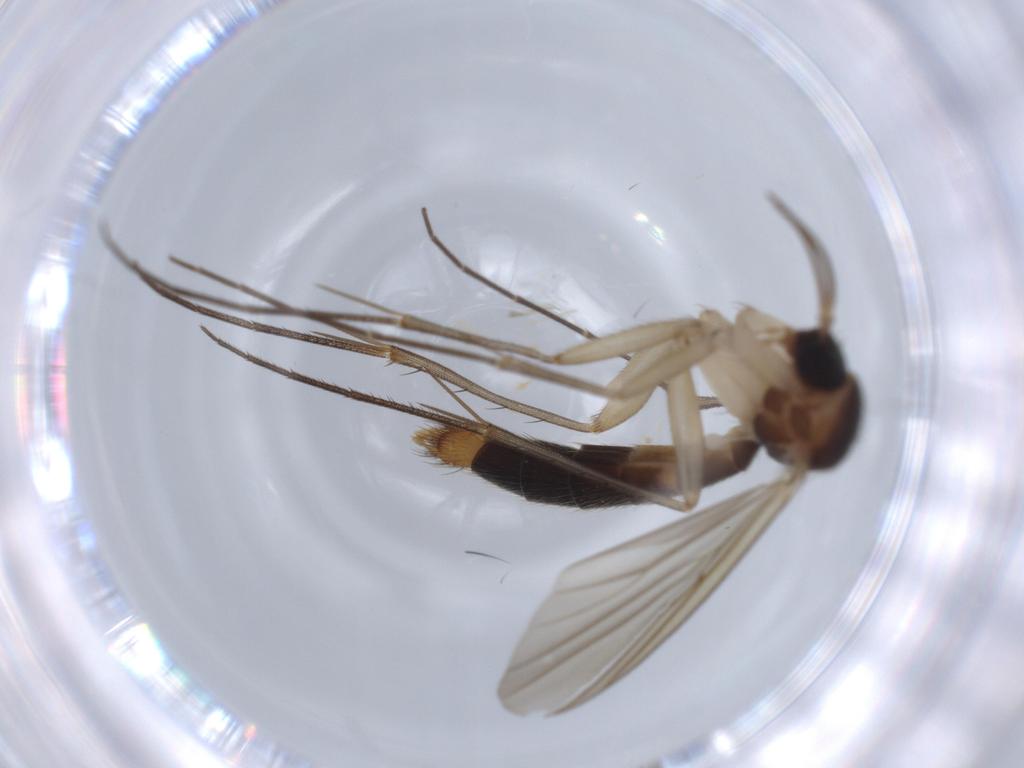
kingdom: Animalia
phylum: Arthropoda
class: Insecta
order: Diptera
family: Mycetophilidae
